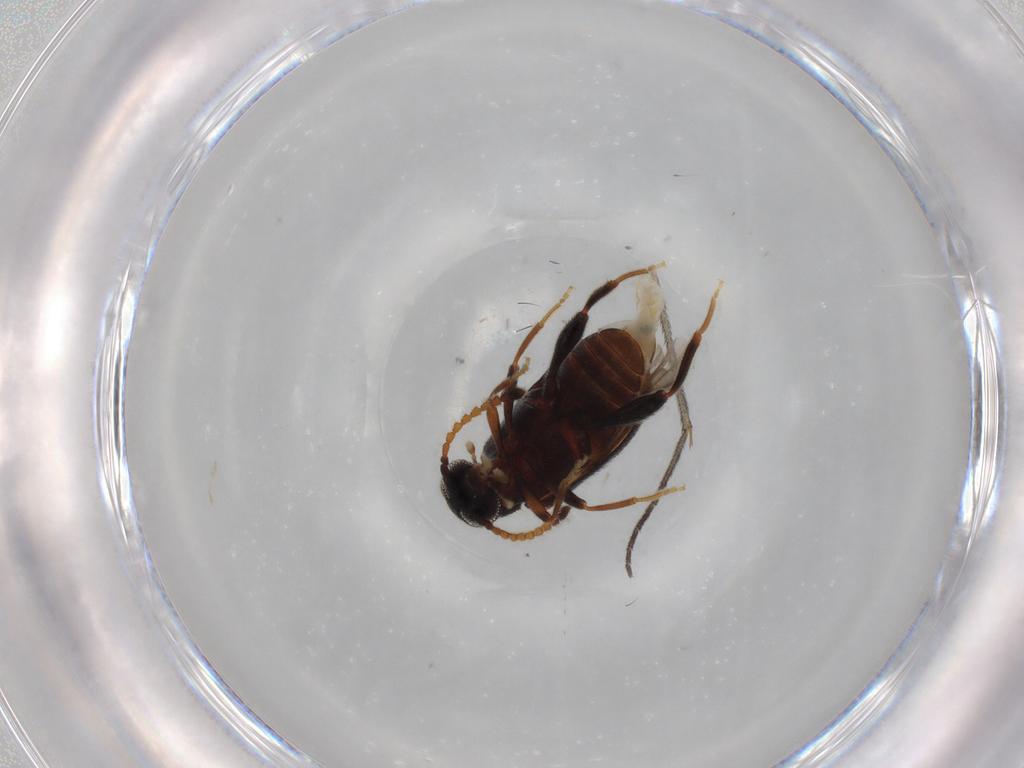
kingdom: Animalia
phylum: Arthropoda
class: Insecta
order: Coleoptera
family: Aderidae
